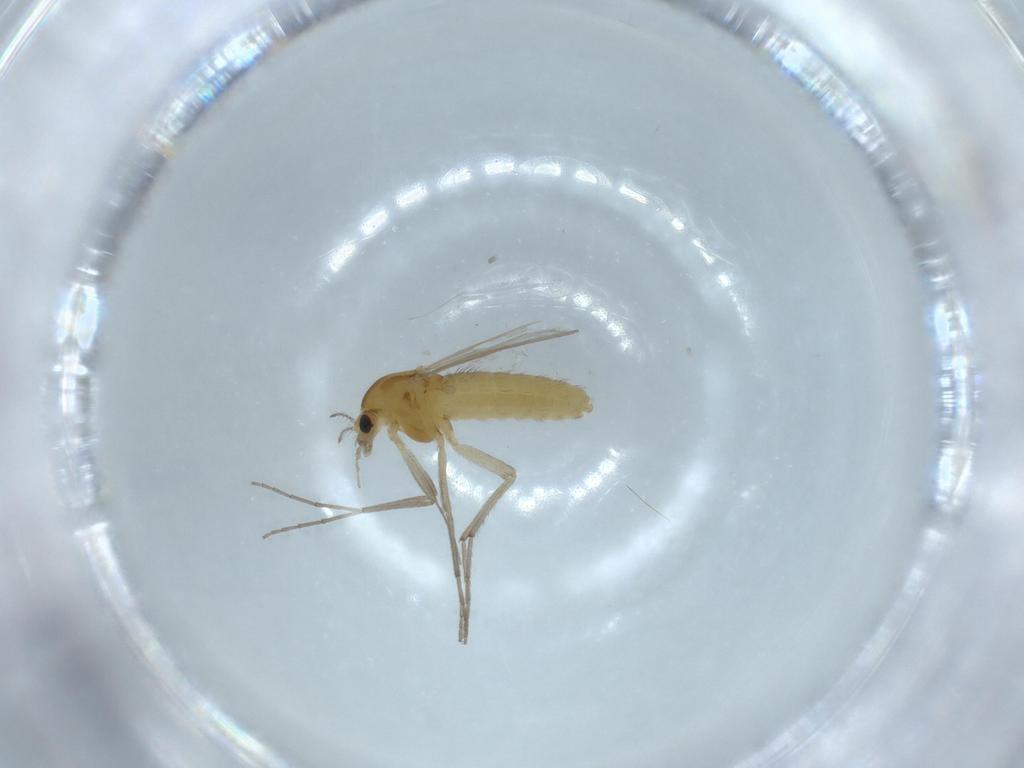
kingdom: Animalia
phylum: Arthropoda
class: Insecta
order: Diptera
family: Chironomidae
